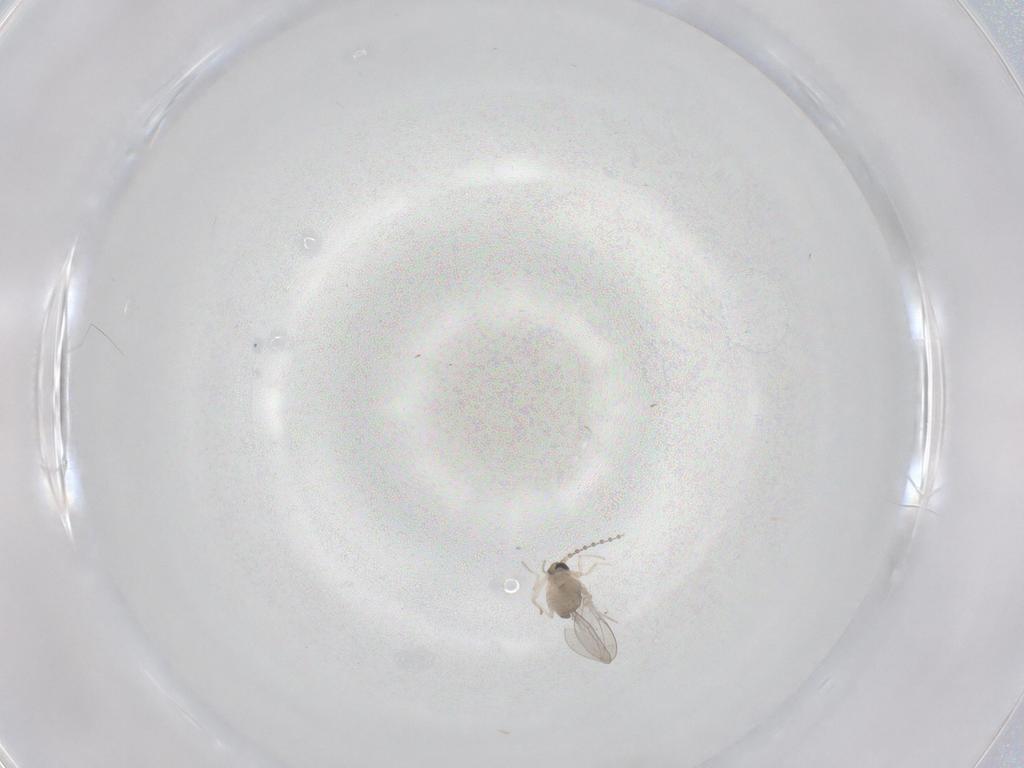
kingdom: Animalia
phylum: Arthropoda
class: Insecta
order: Diptera
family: Cecidomyiidae
